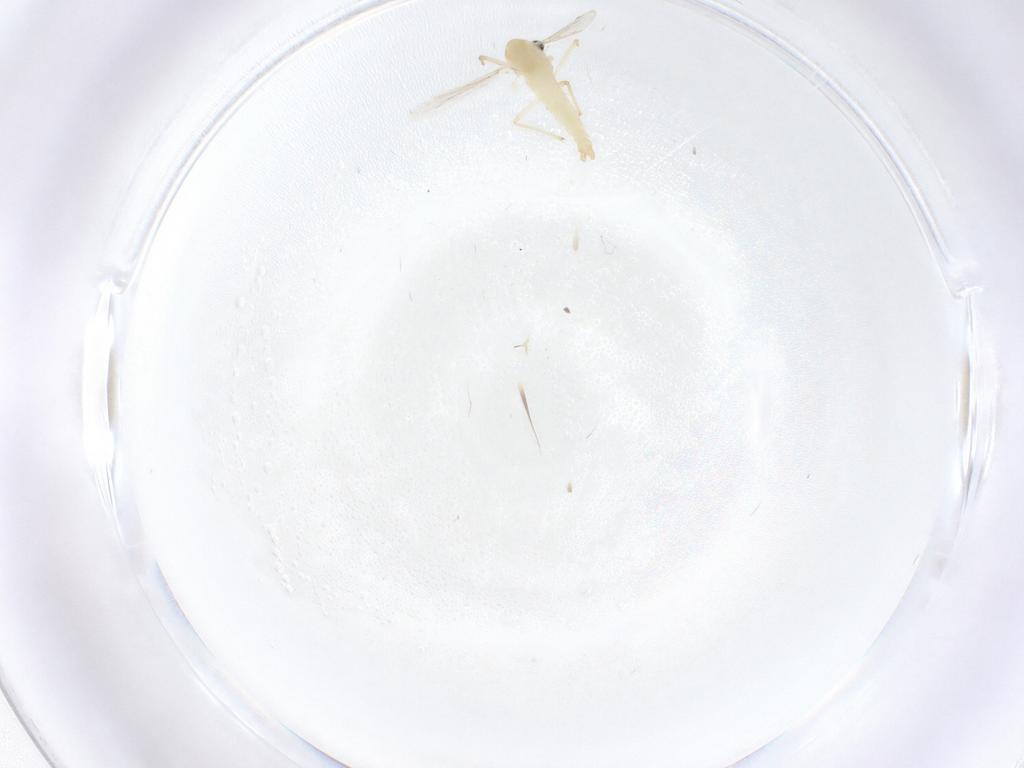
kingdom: Animalia
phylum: Arthropoda
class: Insecta
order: Diptera
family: Chironomidae
